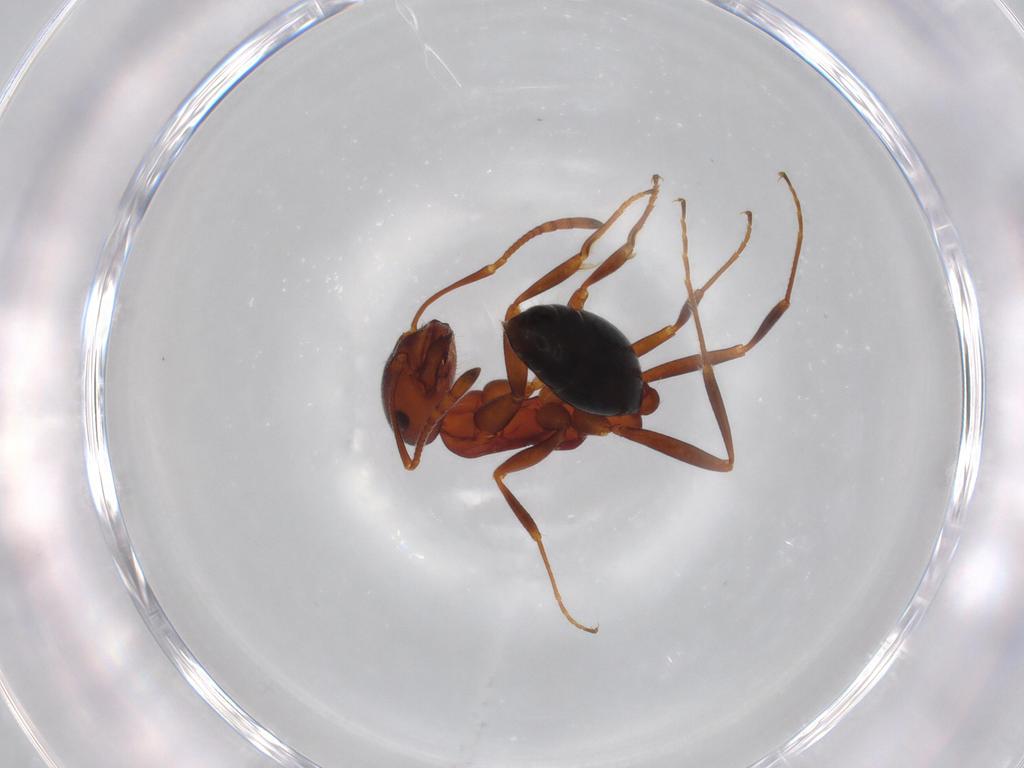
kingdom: Animalia
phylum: Arthropoda
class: Insecta
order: Hymenoptera
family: Formicidae
